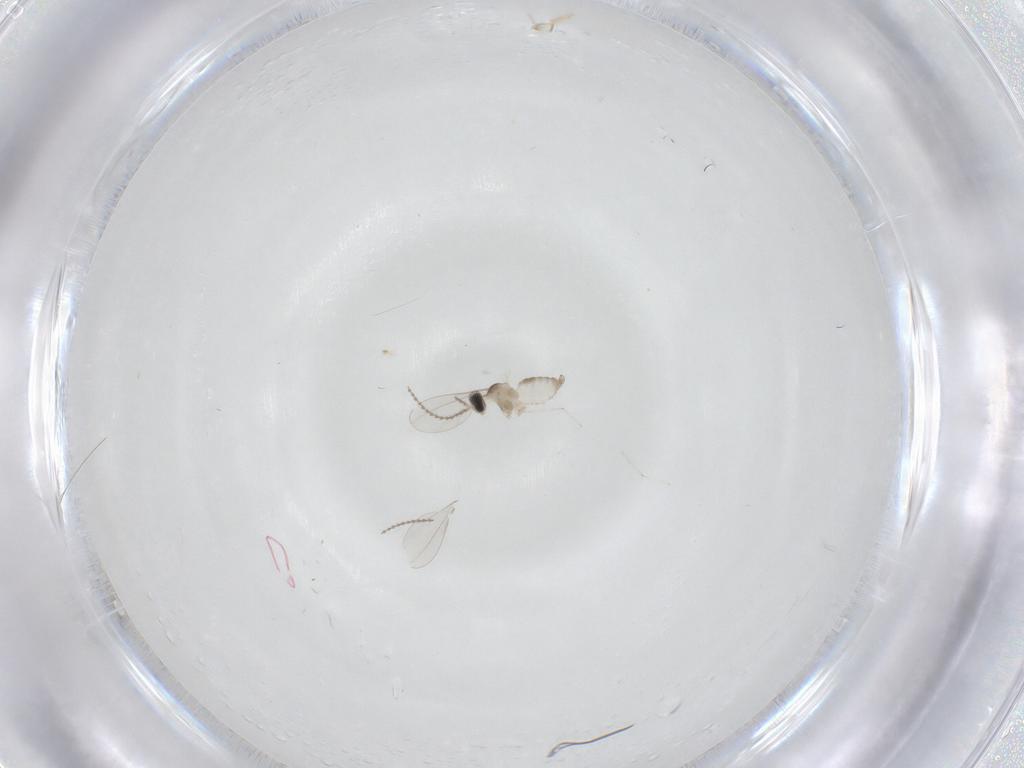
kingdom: Animalia
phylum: Arthropoda
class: Insecta
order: Diptera
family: Cecidomyiidae
